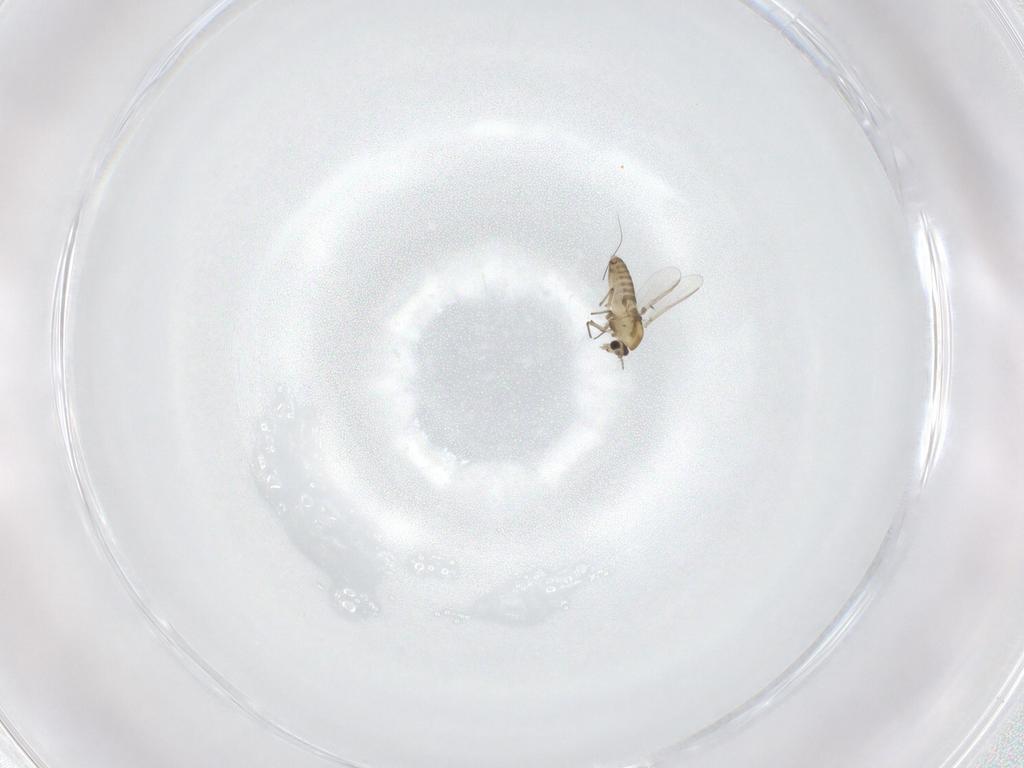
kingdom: Animalia
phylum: Arthropoda
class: Insecta
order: Diptera
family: Chironomidae
